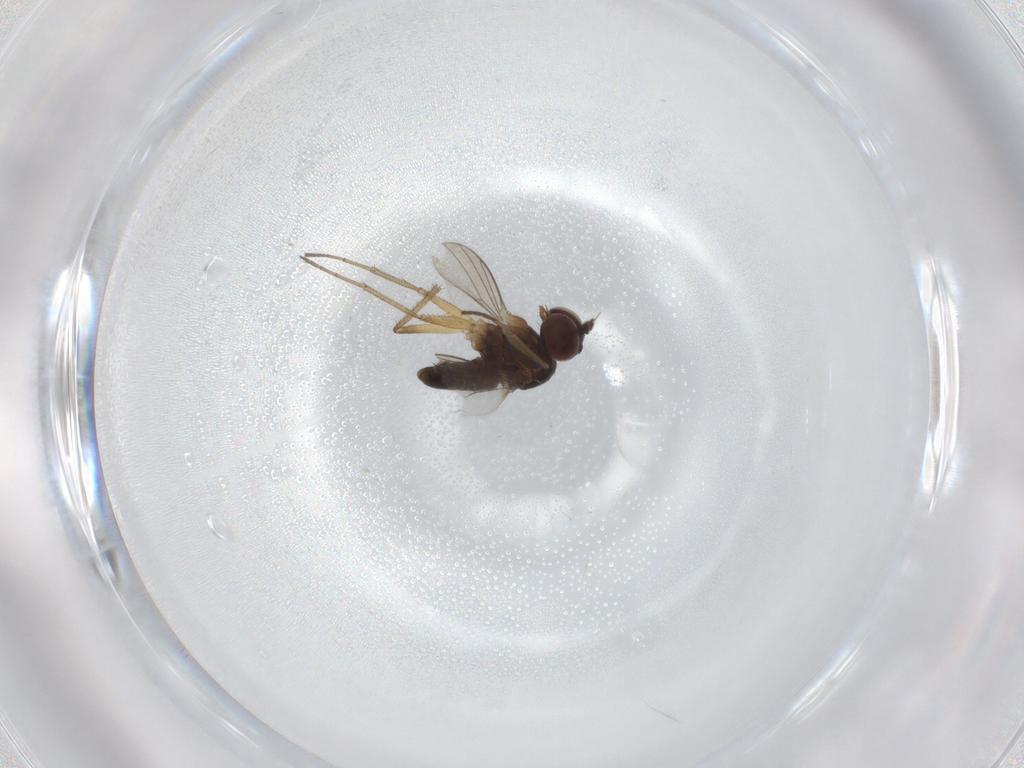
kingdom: Animalia
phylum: Arthropoda
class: Insecta
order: Diptera
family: Dolichopodidae
